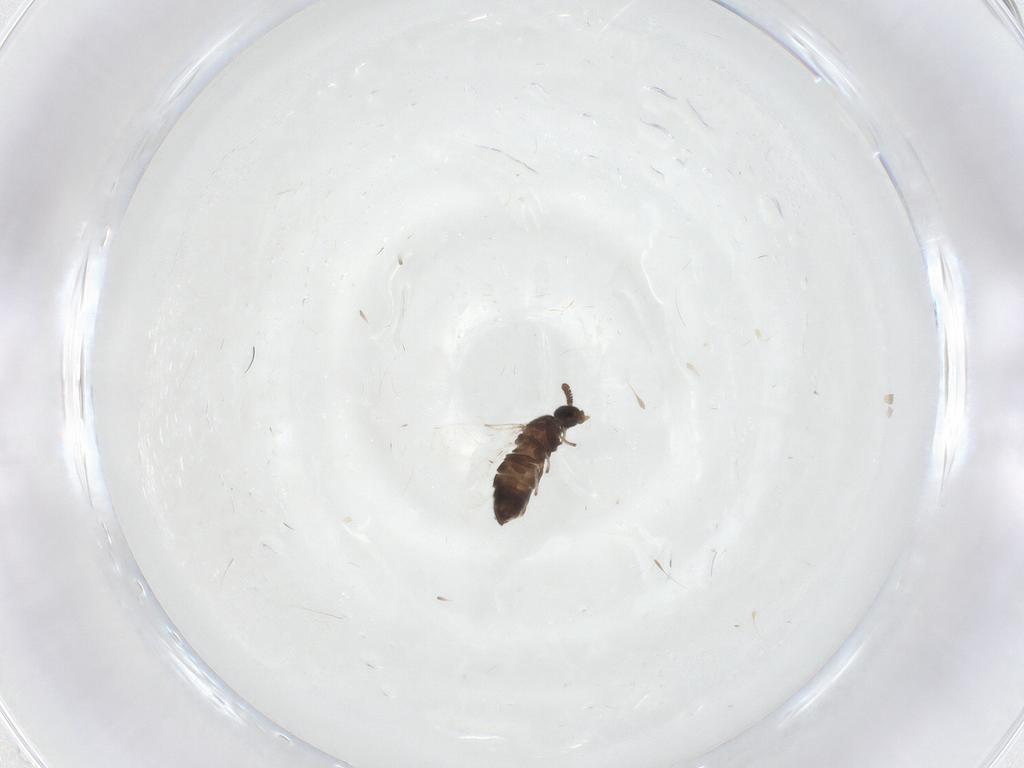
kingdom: Animalia
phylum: Arthropoda
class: Insecta
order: Diptera
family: Scatopsidae
